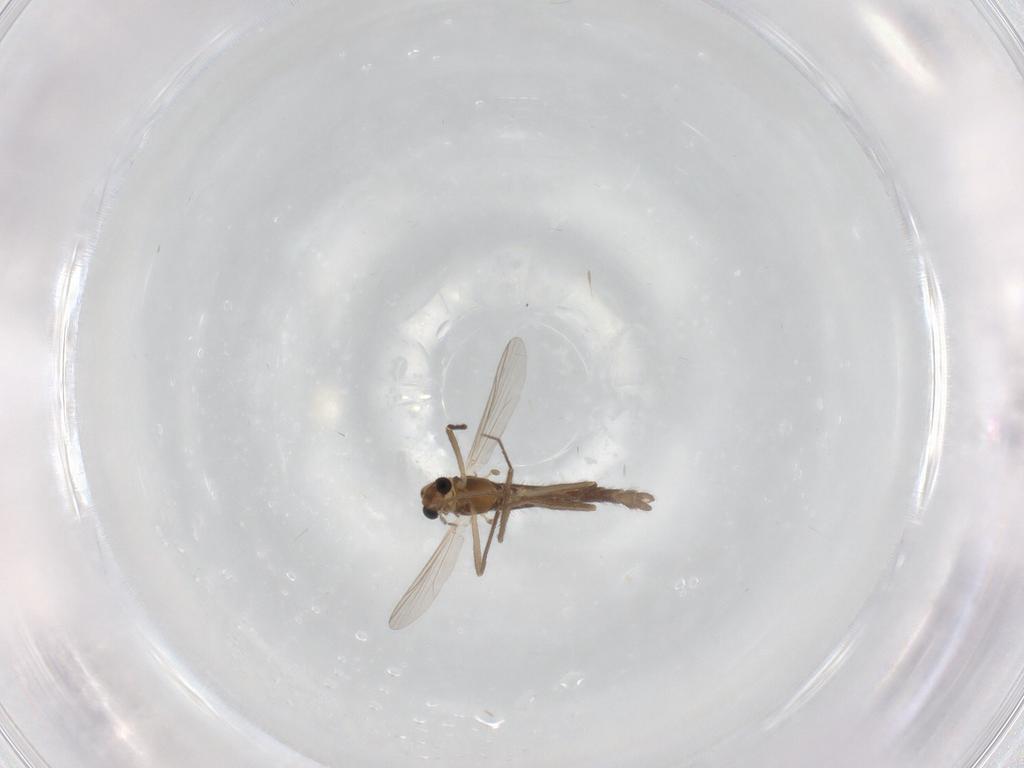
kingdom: Animalia
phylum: Arthropoda
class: Insecta
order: Diptera
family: Chironomidae
